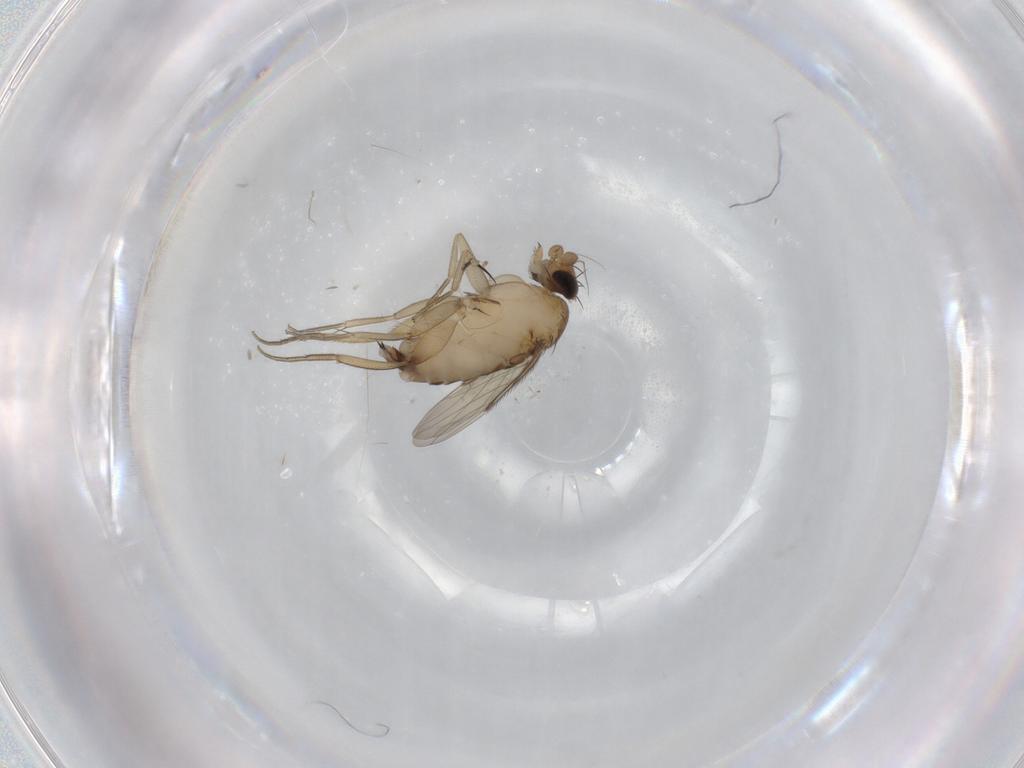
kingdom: Animalia
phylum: Arthropoda
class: Insecta
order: Diptera
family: Phoridae
